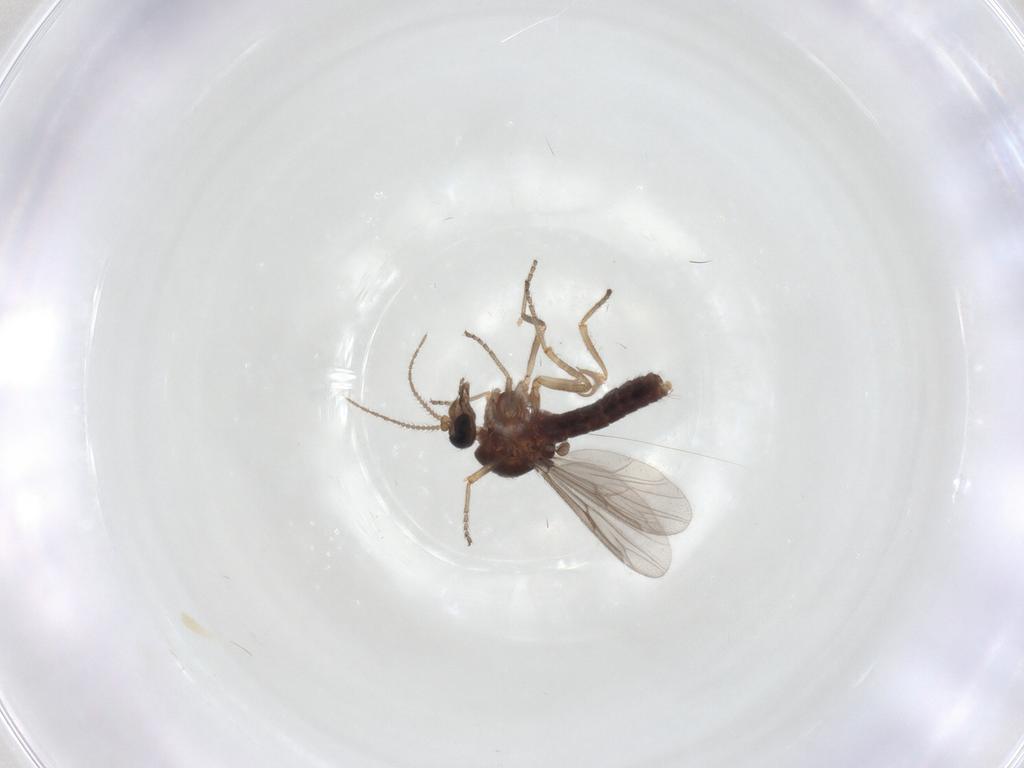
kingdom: Animalia
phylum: Arthropoda
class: Insecta
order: Diptera
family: Ceratopogonidae
